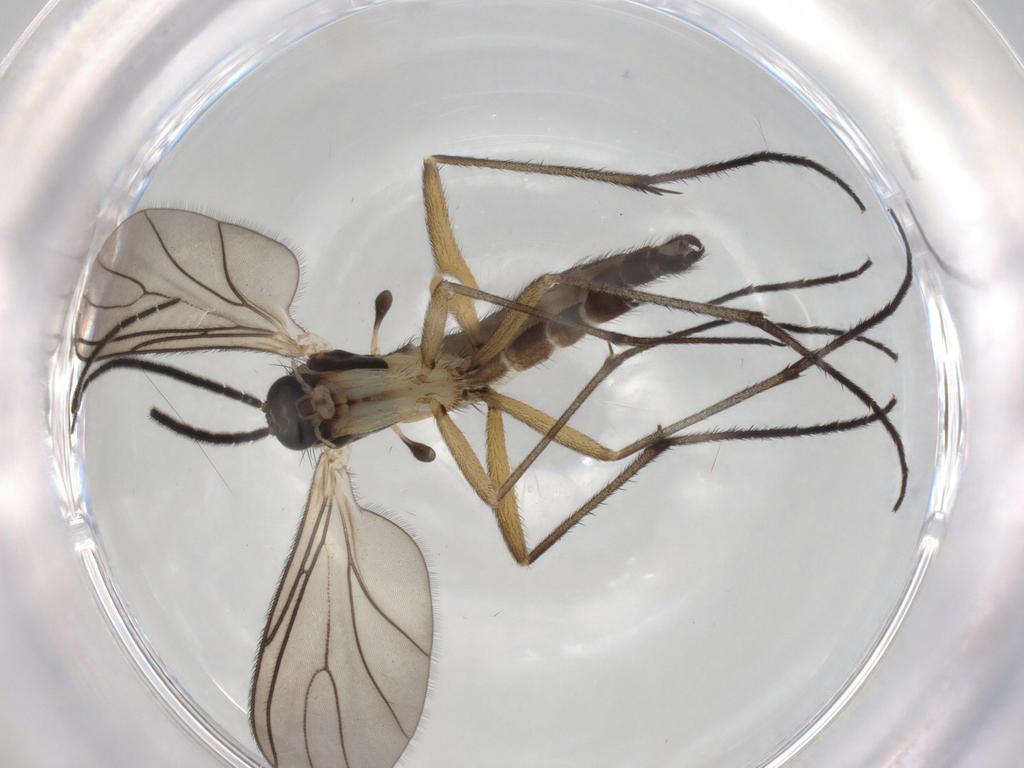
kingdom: Animalia
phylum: Arthropoda
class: Insecta
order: Diptera
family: Sciaridae
